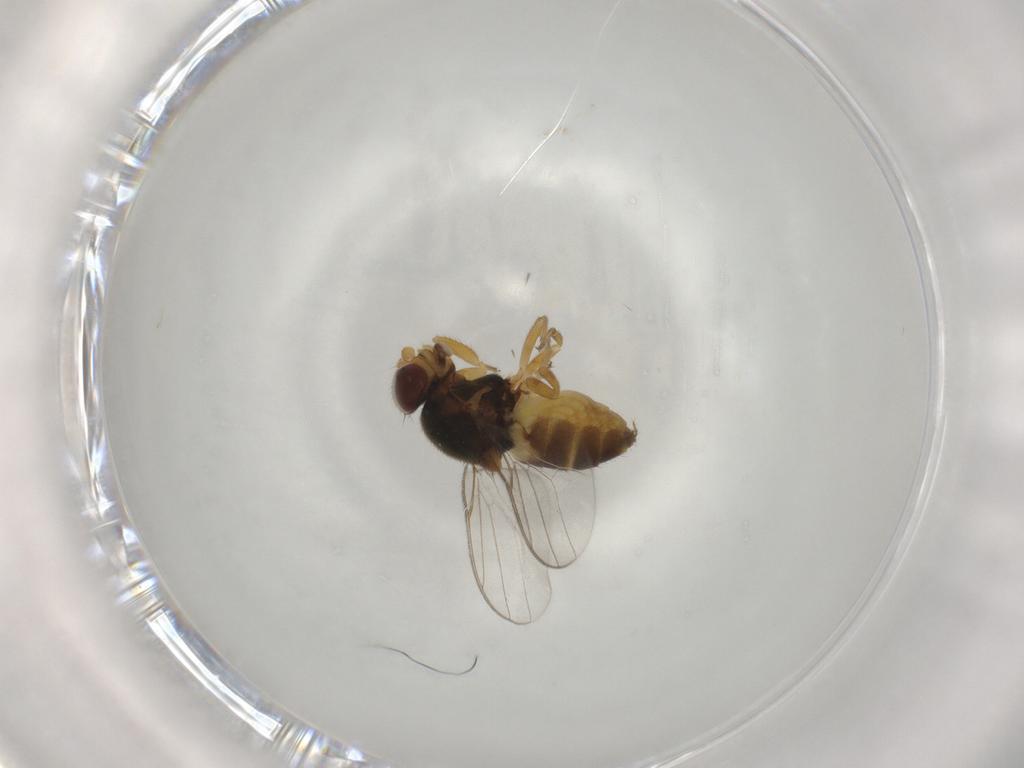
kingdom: Animalia
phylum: Arthropoda
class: Insecta
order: Diptera
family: Chloropidae
